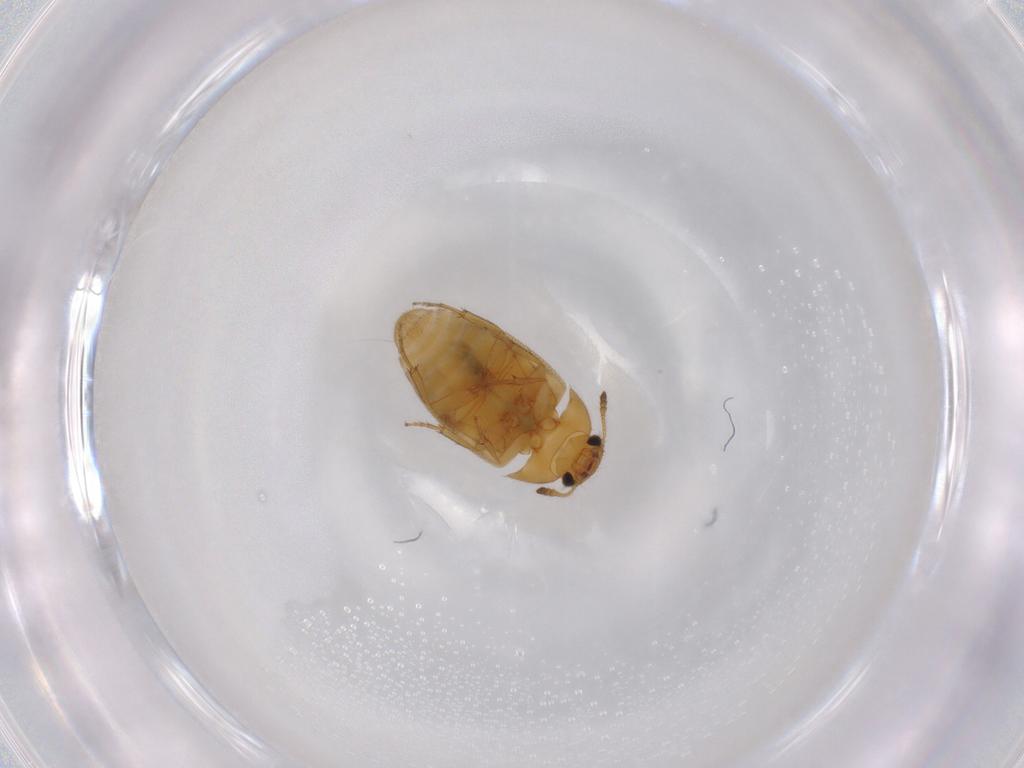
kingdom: Animalia
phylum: Arthropoda
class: Insecta
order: Coleoptera
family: Mycetophagidae
